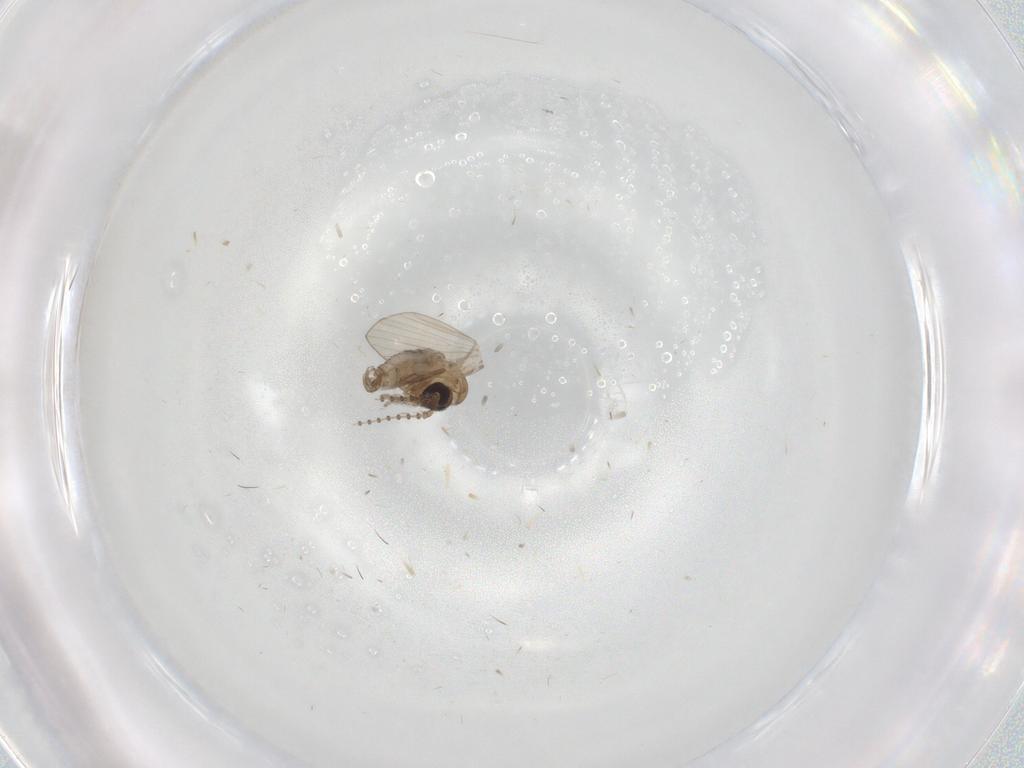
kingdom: Animalia
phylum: Arthropoda
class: Insecta
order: Diptera
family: Psychodidae
